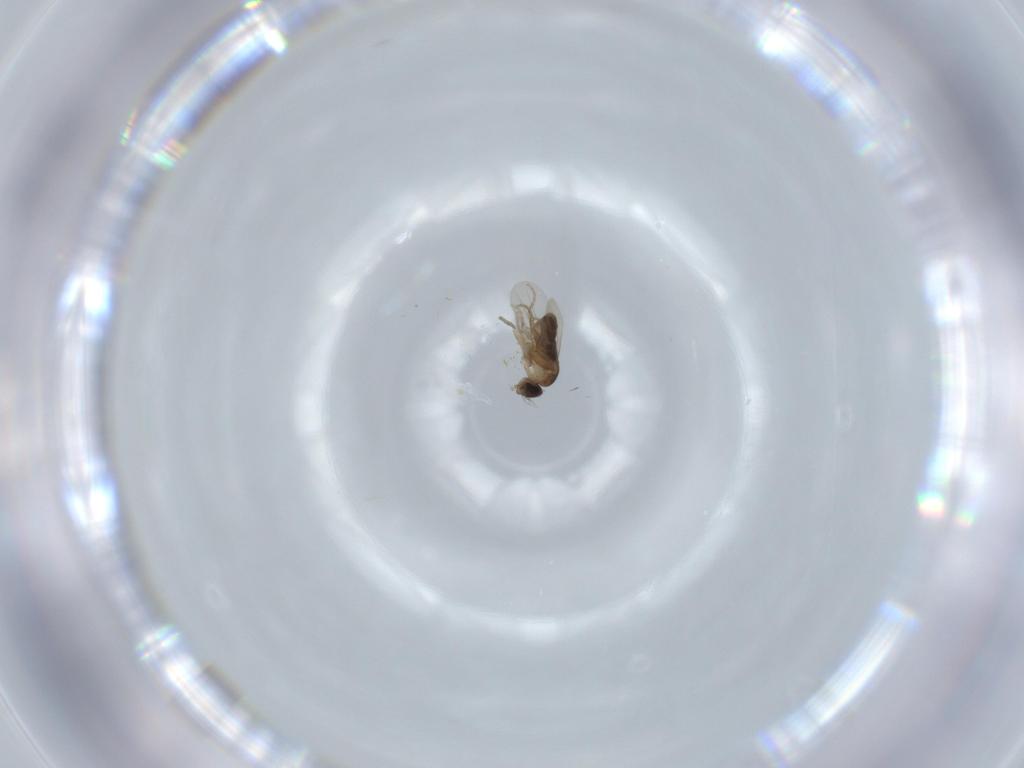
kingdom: Animalia
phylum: Arthropoda
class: Insecta
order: Diptera
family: Phoridae
